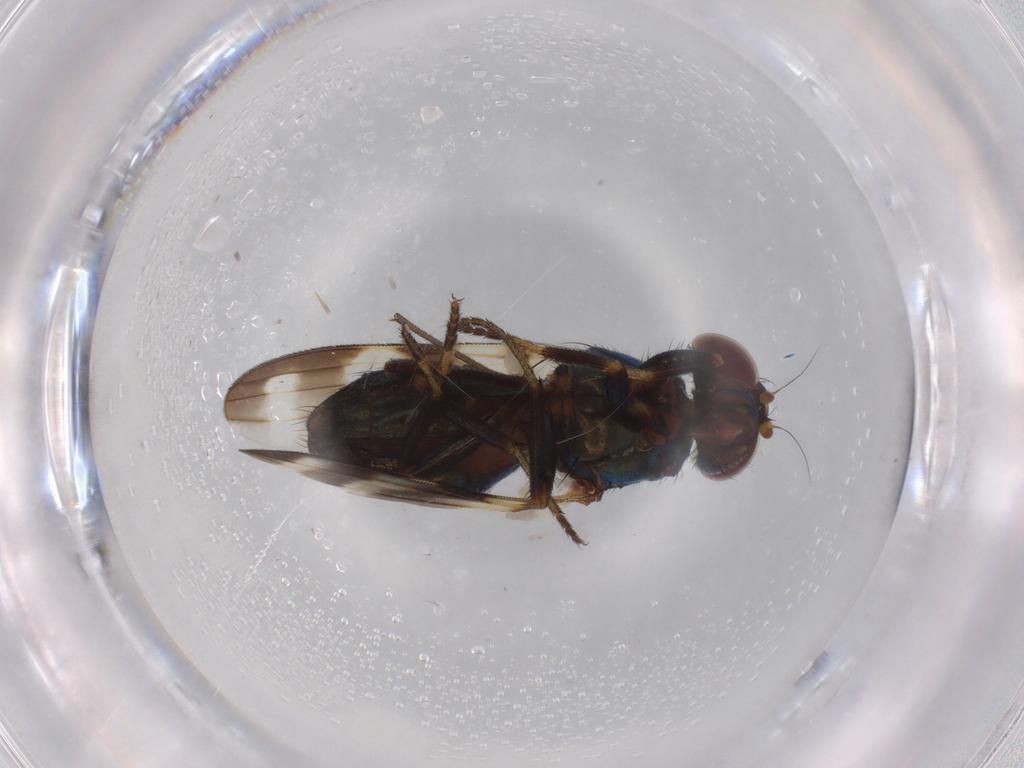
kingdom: Animalia
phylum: Arthropoda
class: Insecta
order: Diptera
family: Ulidiidae
